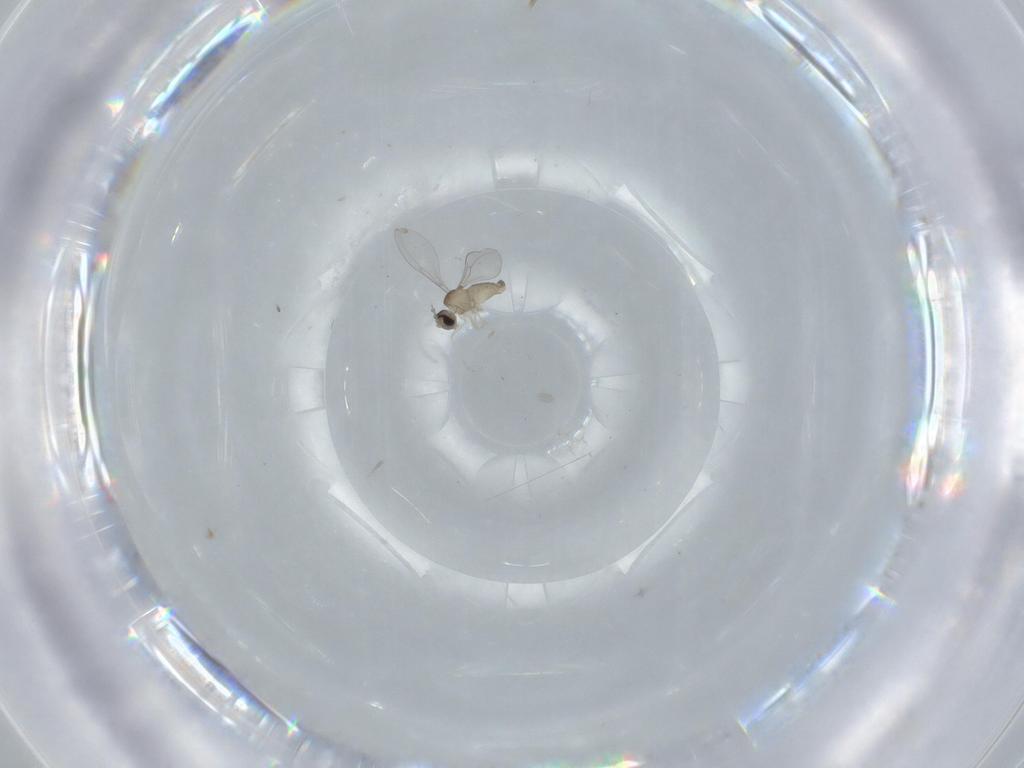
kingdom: Animalia
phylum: Arthropoda
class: Insecta
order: Diptera
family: Cecidomyiidae
